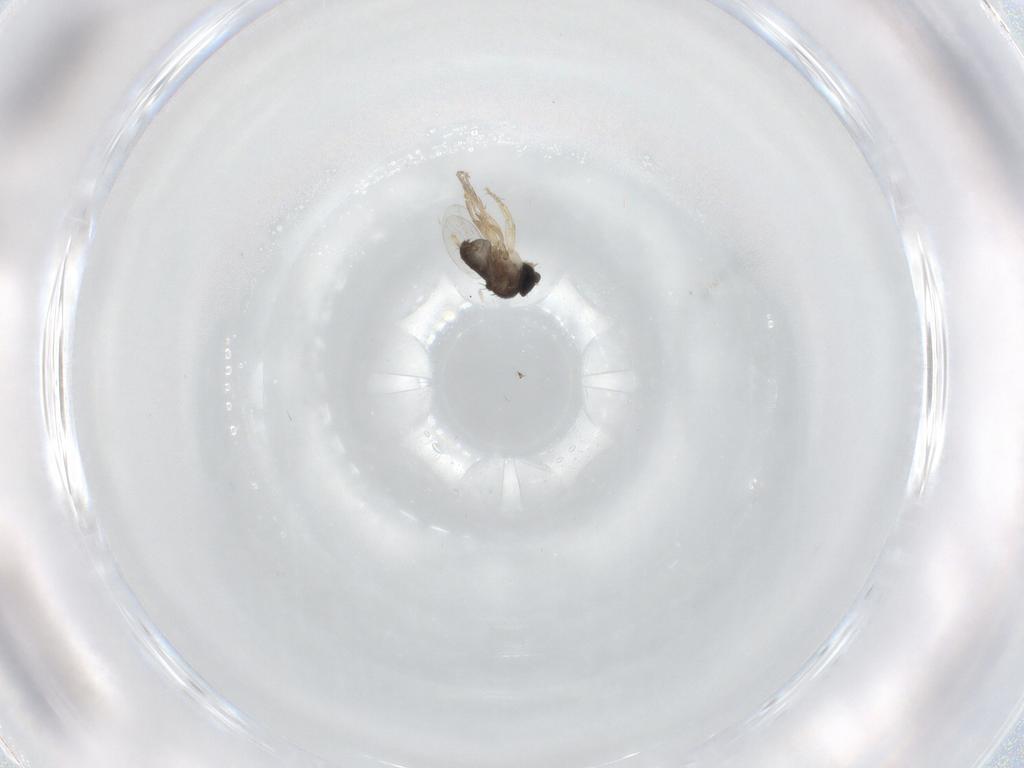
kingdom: Animalia
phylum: Arthropoda
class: Insecta
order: Diptera
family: Phoridae
